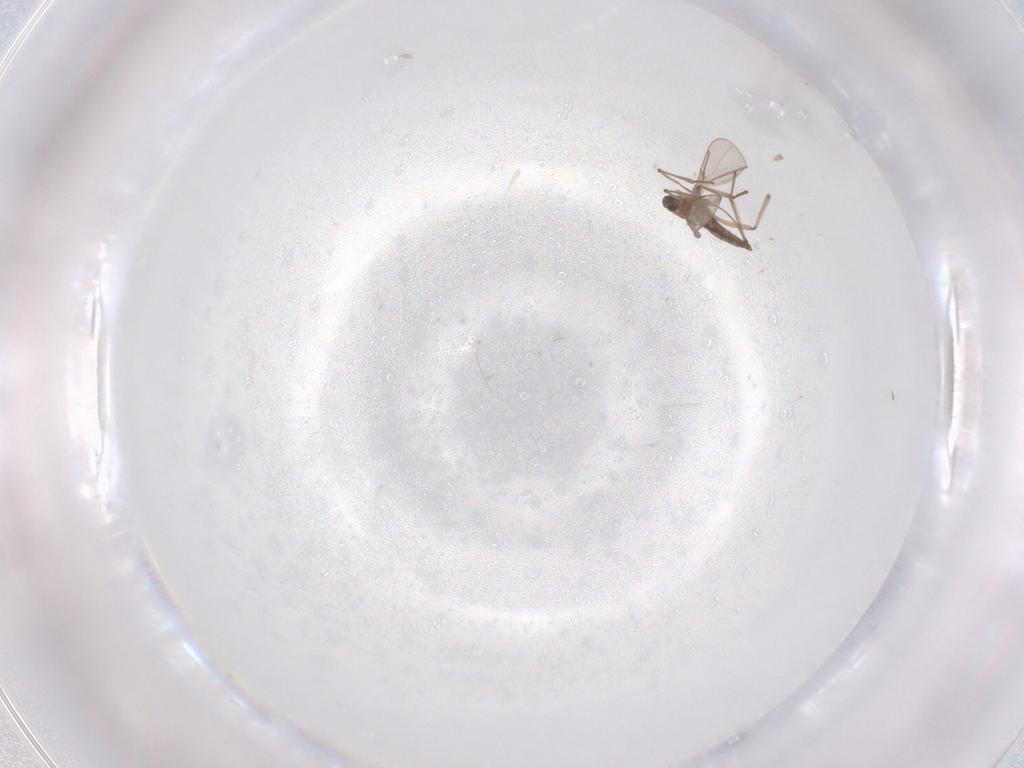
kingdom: Animalia
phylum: Arthropoda
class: Insecta
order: Diptera
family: Cecidomyiidae
